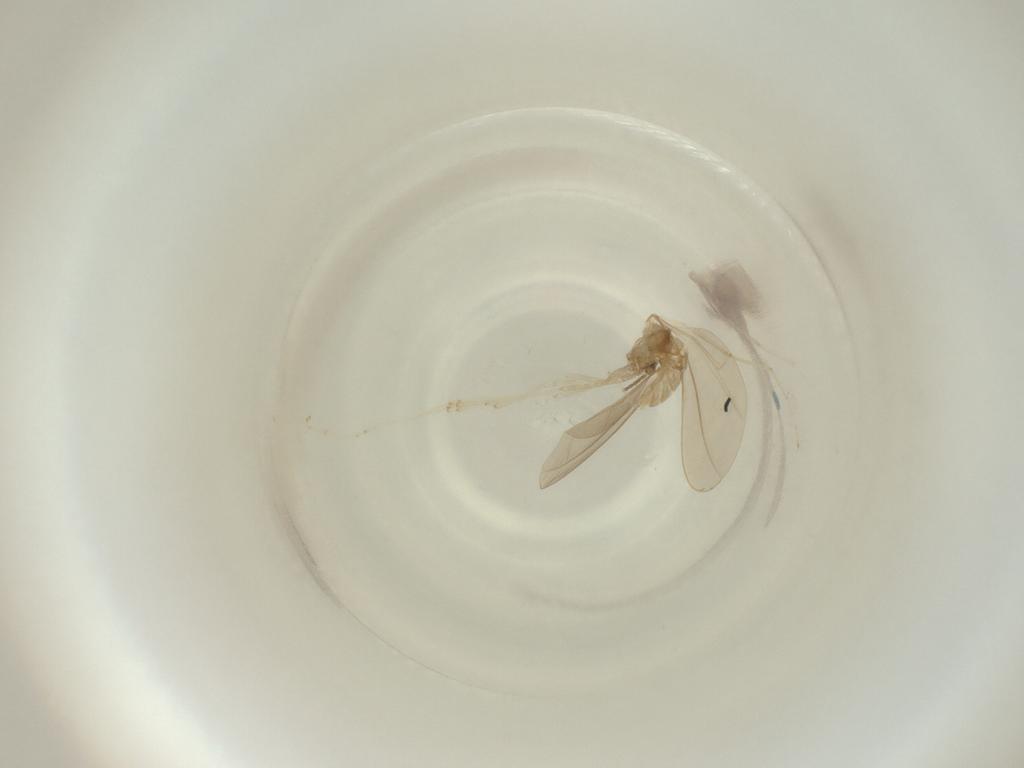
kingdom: Animalia
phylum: Arthropoda
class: Insecta
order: Diptera
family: Cecidomyiidae
